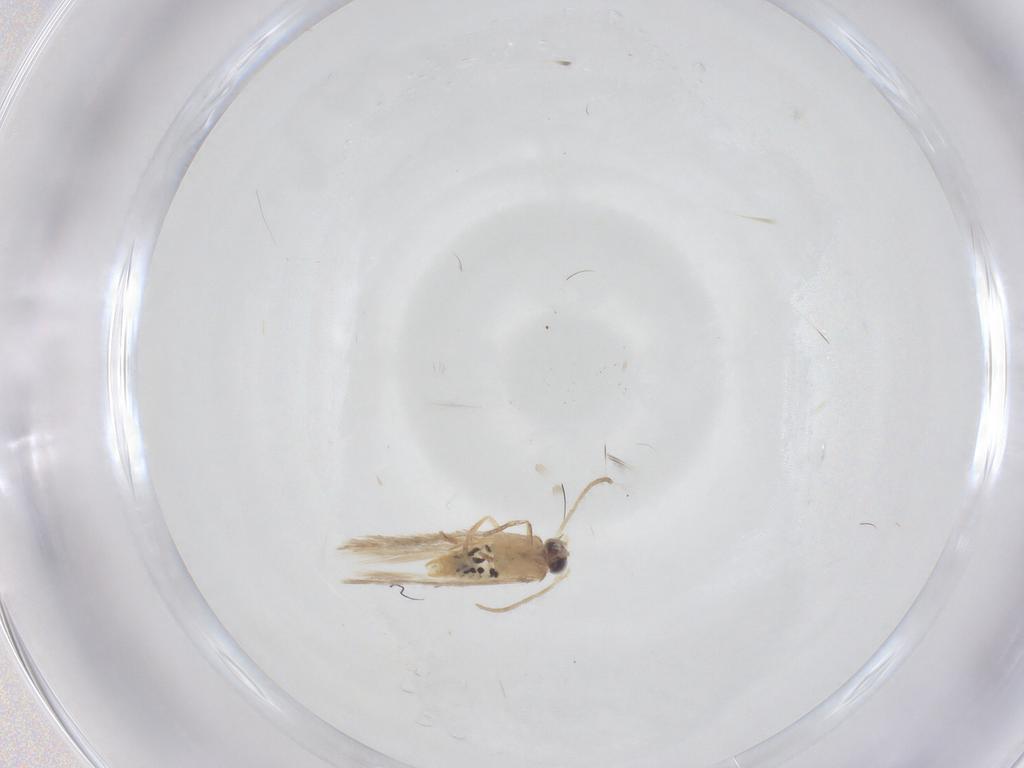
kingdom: Animalia
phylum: Arthropoda
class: Insecta
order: Lepidoptera
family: Nepticulidae
